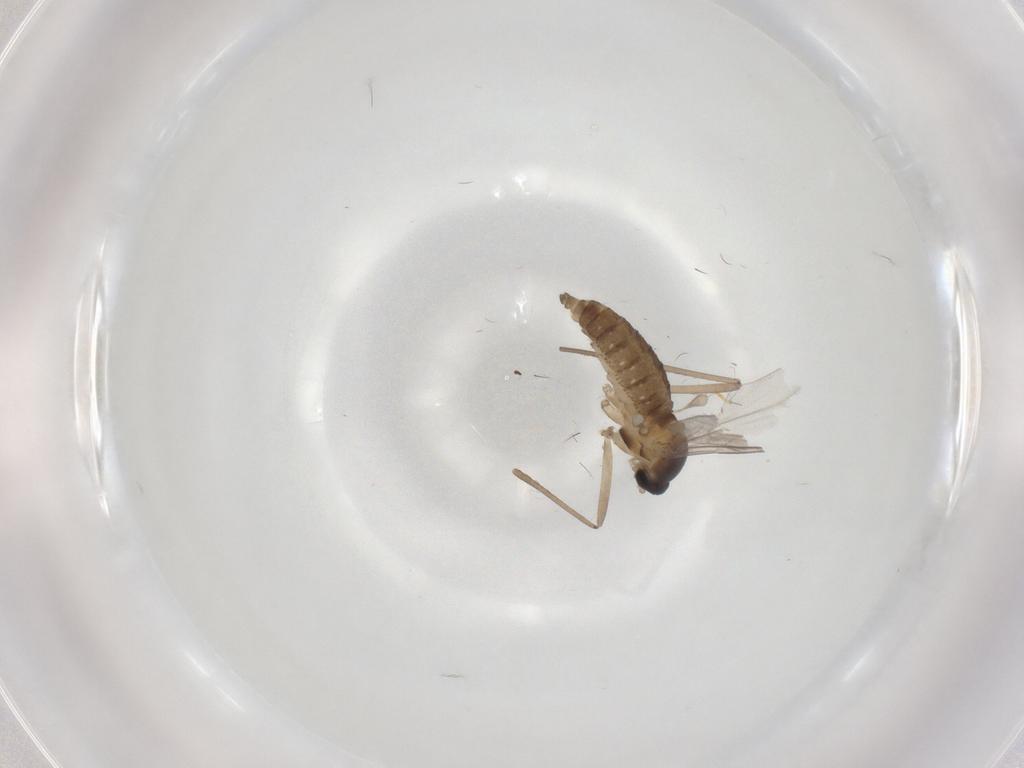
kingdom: Animalia
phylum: Arthropoda
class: Insecta
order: Diptera
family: Cecidomyiidae
